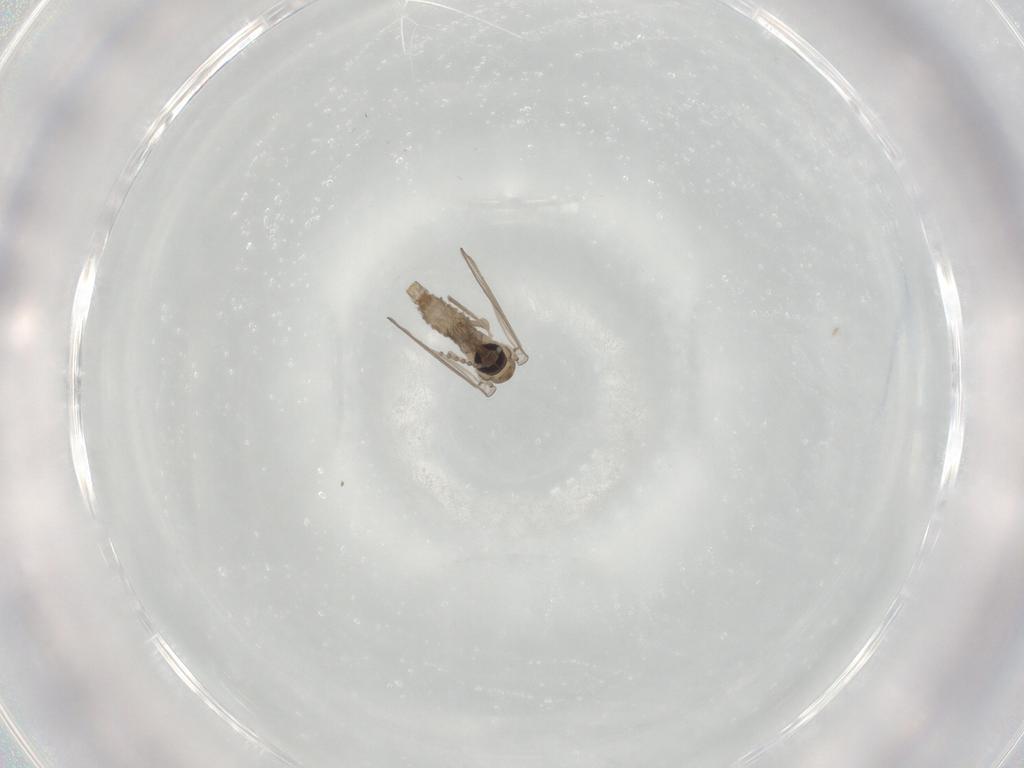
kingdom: Animalia
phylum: Arthropoda
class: Insecta
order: Diptera
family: Psychodidae
